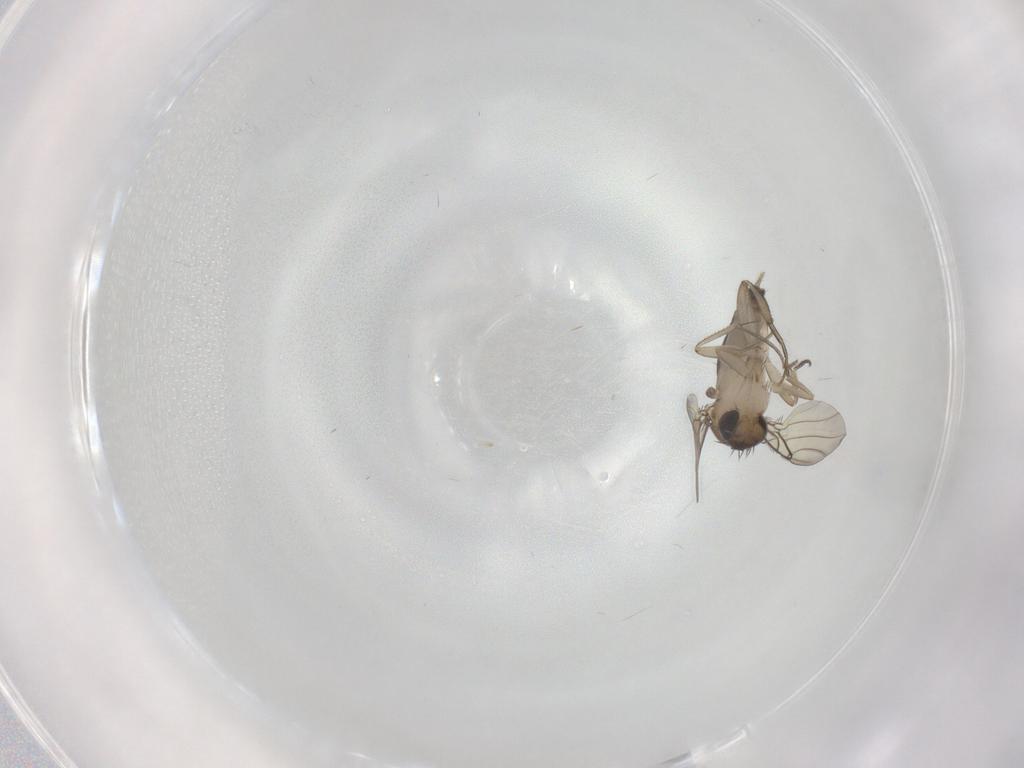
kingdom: Animalia
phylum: Arthropoda
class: Insecta
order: Diptera
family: Phoridae
